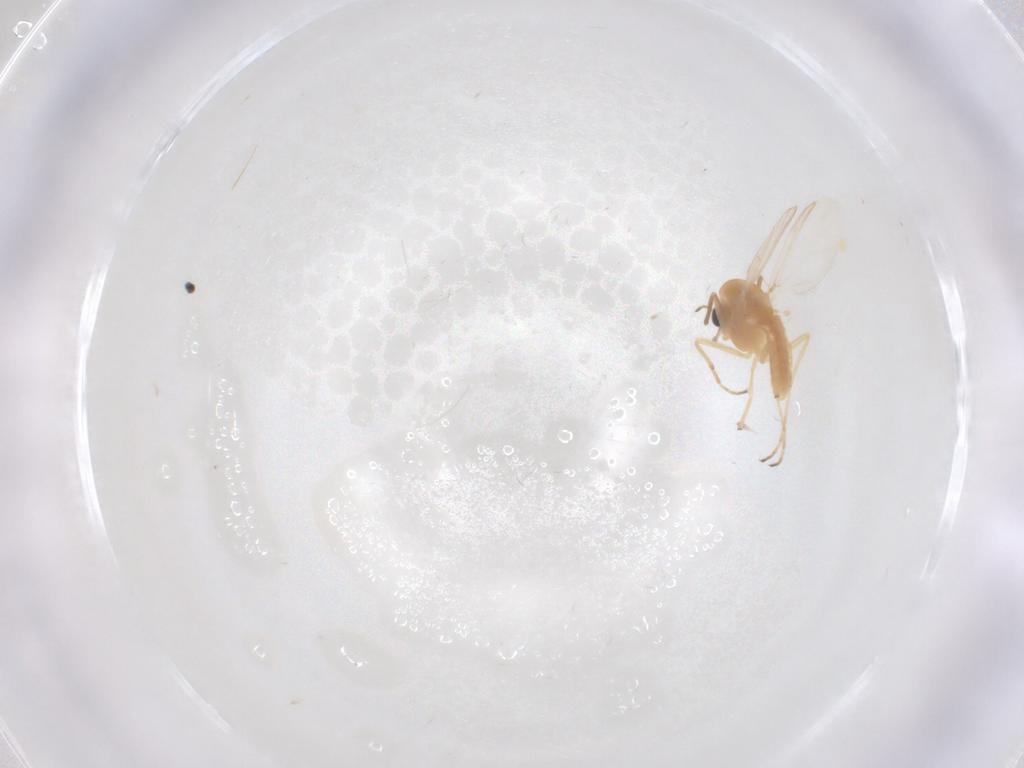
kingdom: Animalia
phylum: Arthropoda
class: Insecta
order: Diptera
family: Chironomidae
